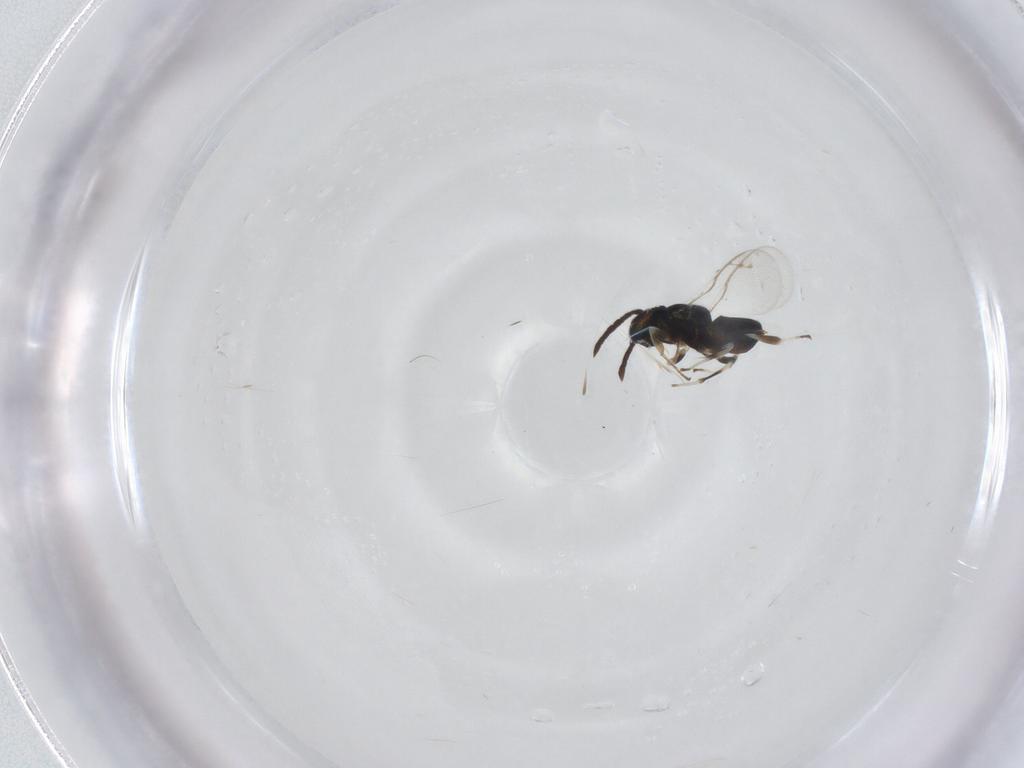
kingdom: Animalia
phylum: Arthropoda
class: Insecta
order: Hymenoptera
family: Eupelmidae
